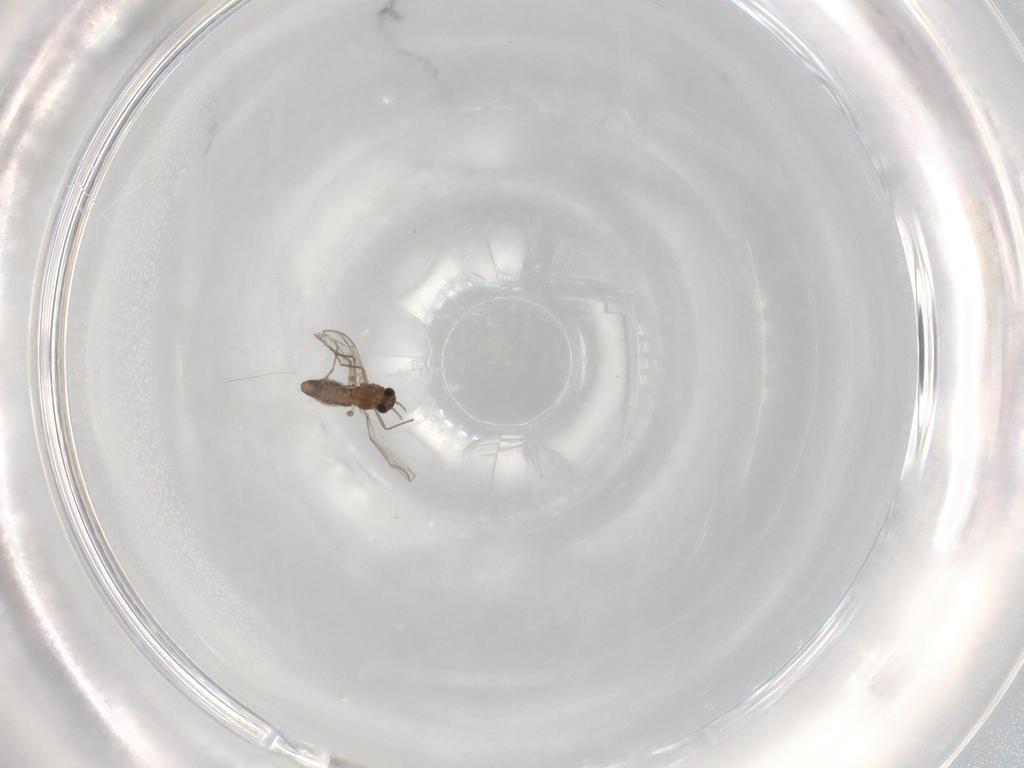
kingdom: Animalia
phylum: Arthropoda
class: Insecta
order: Diptera
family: Chironomidae
